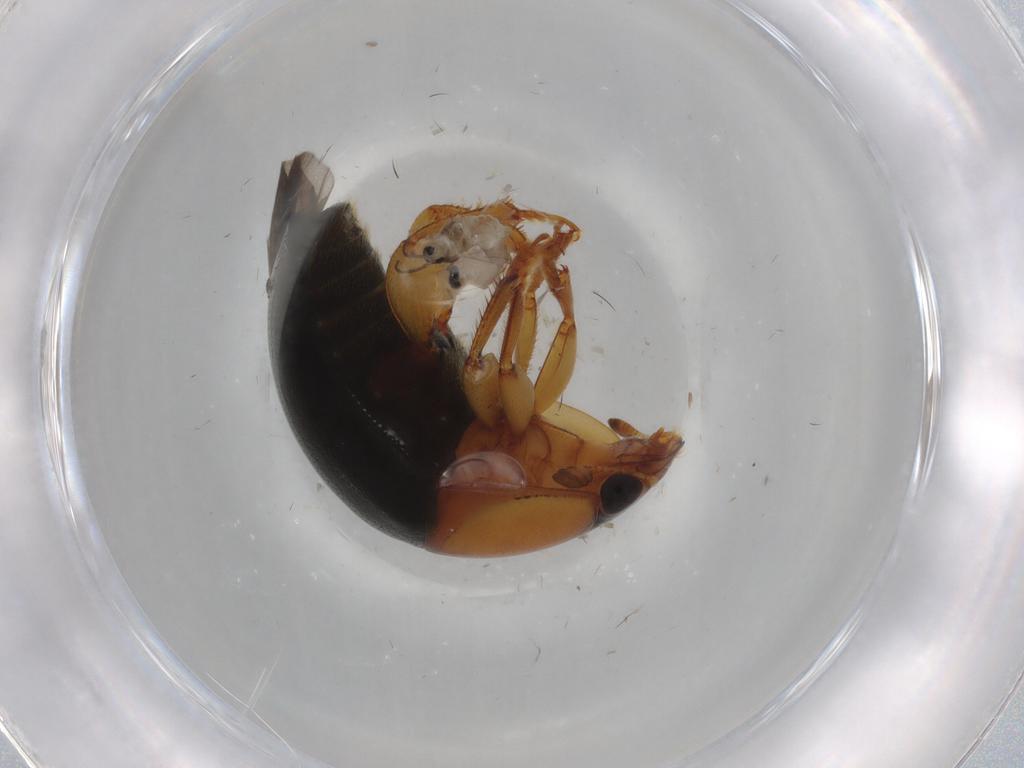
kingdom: Animalia
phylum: Arthropoda
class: Insecta
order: Coleoptera
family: Nitidulidae
